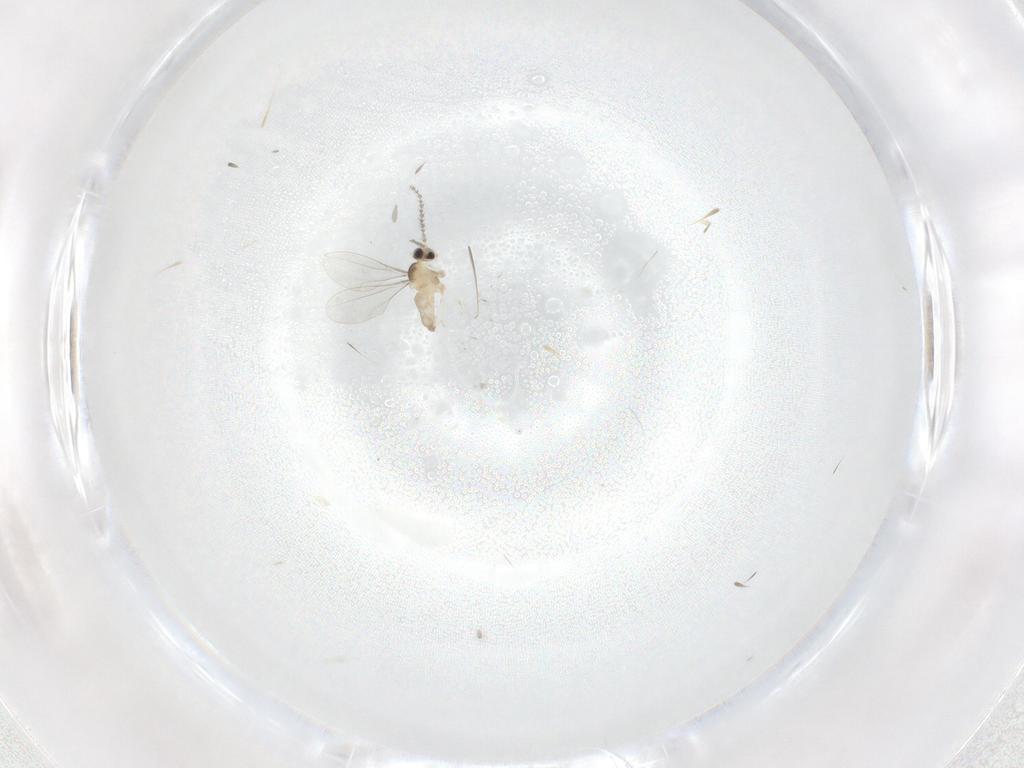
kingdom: Animalia
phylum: Arthropoda
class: Insecta
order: Diptera
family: Cecidomyiidae
